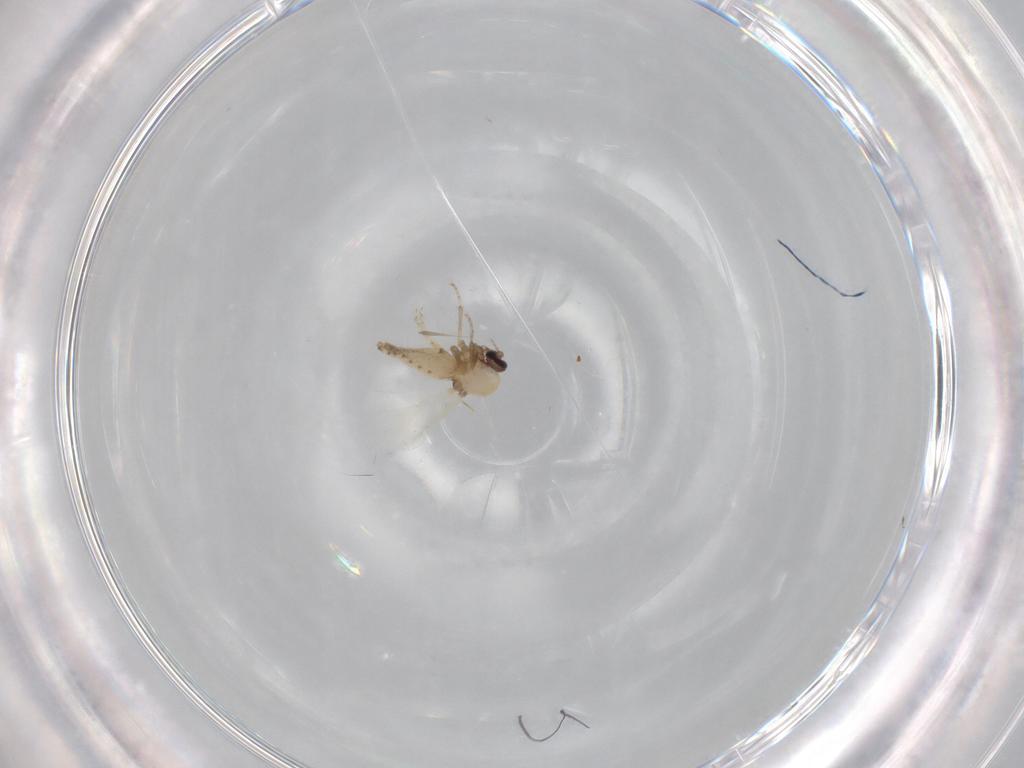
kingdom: Animalia
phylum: Arthropoda
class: Insecta
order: Diptera
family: Ceratopogonidae
